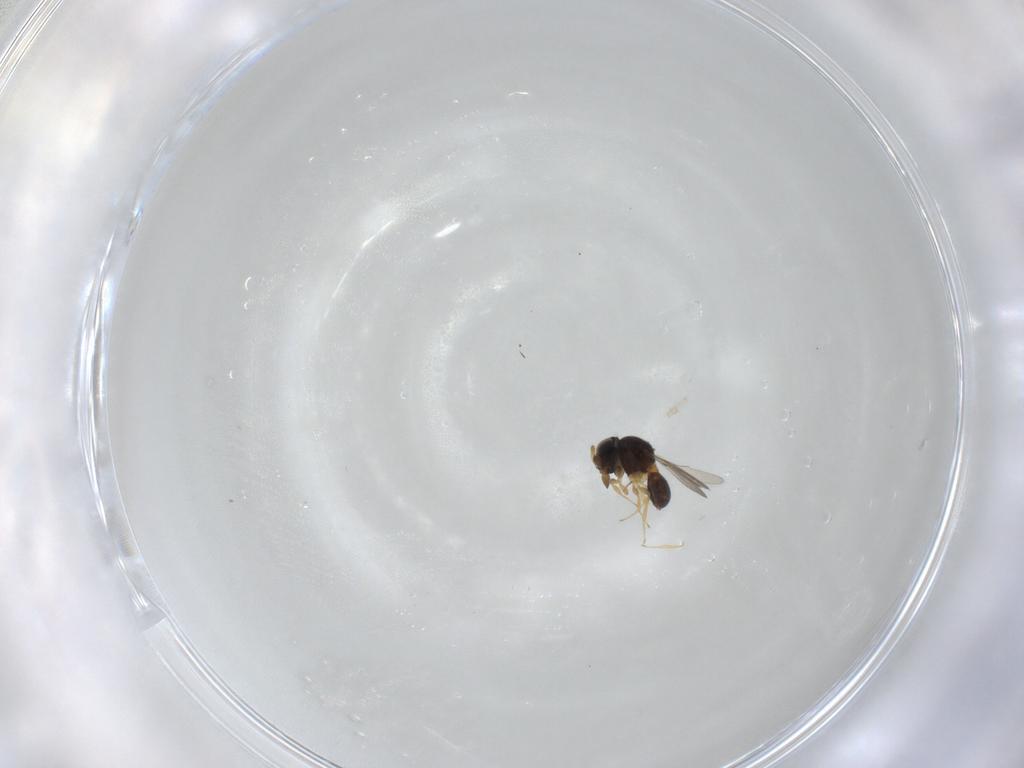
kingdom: Animalia
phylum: Arthropoda
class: Insecta
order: Hymenoptera
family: Scelionidae
